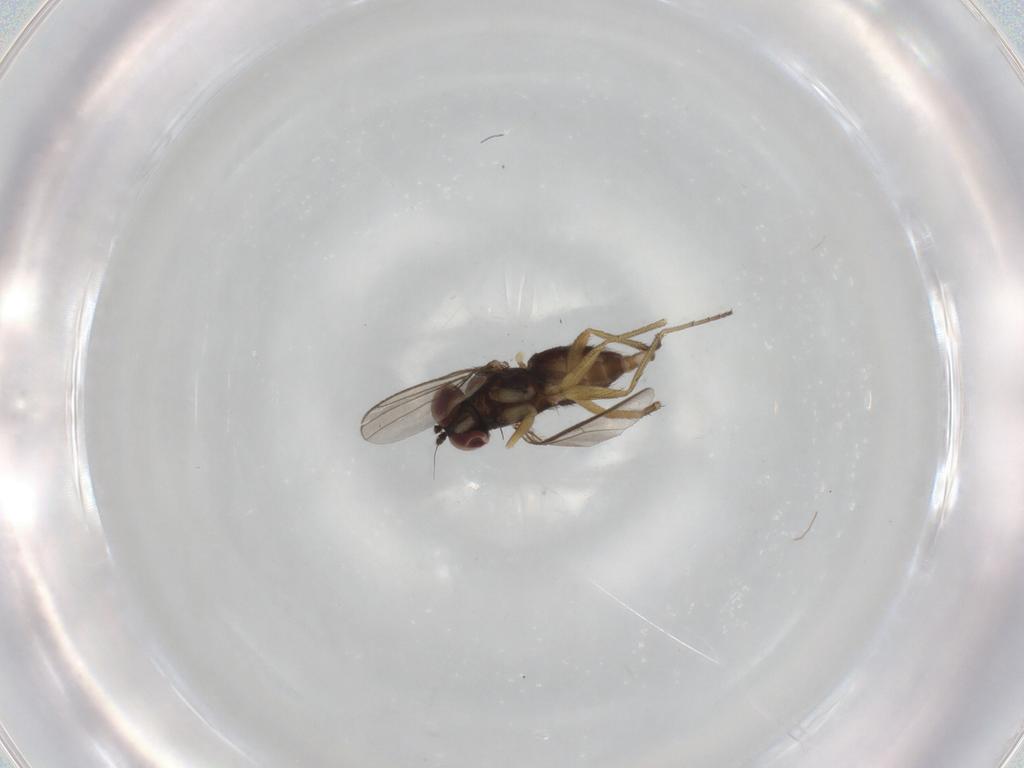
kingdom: Animalia
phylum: Arthropoda
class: Insecta
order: Diptera
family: Dolichopodidae
